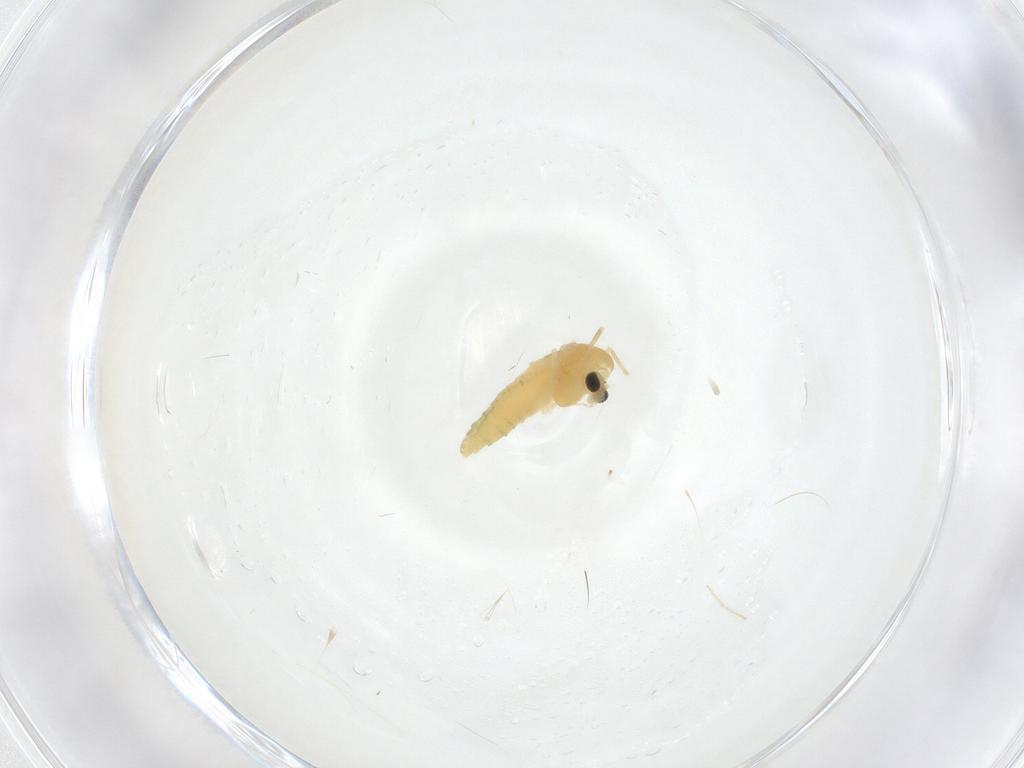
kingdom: Animalia
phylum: Arthropoda
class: Insecta
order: Diptera
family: Chironomidae
